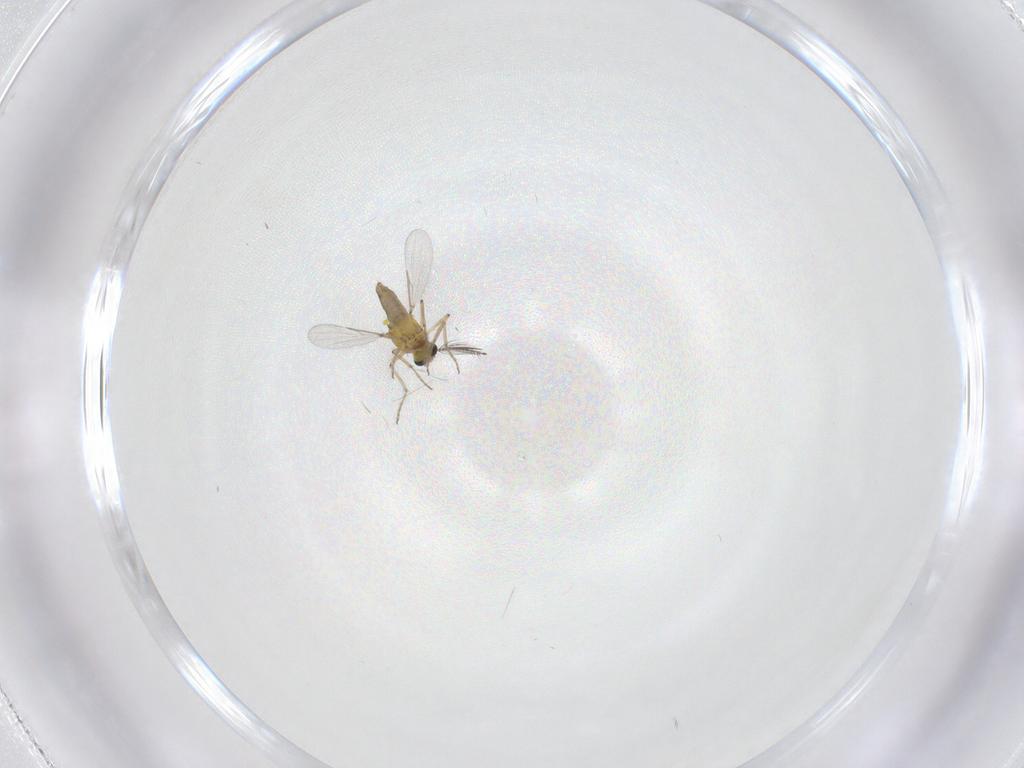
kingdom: Animalia
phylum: Arthropoda
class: Insecta
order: Diptera
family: Ceratopogonidae
